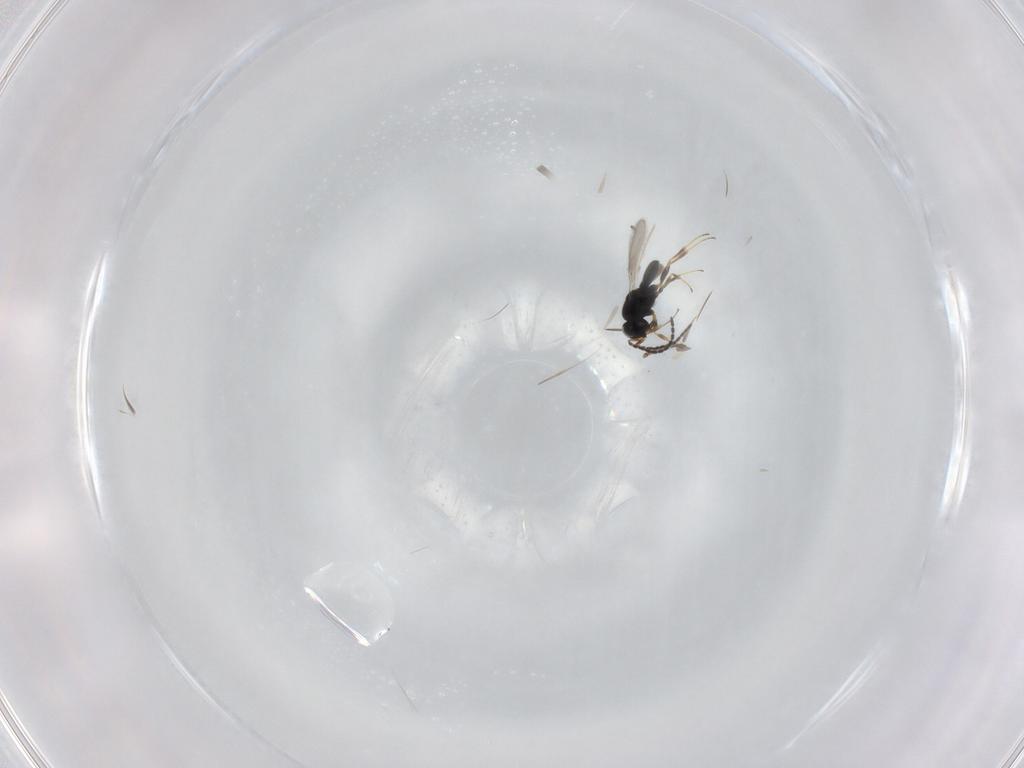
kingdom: Animalia
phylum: Arthropoda
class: Insecta
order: Hymenoptera
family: Scelionidae
